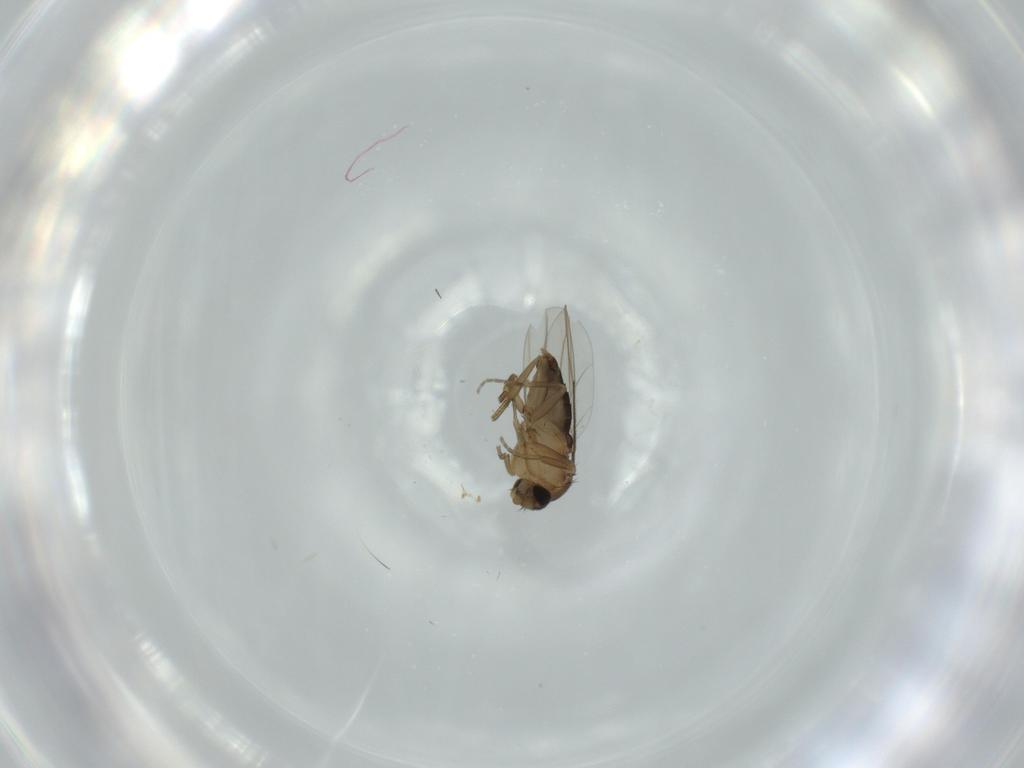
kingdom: Animalia
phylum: Arthropoda
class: Insecta
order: Diptera
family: Phoridae
